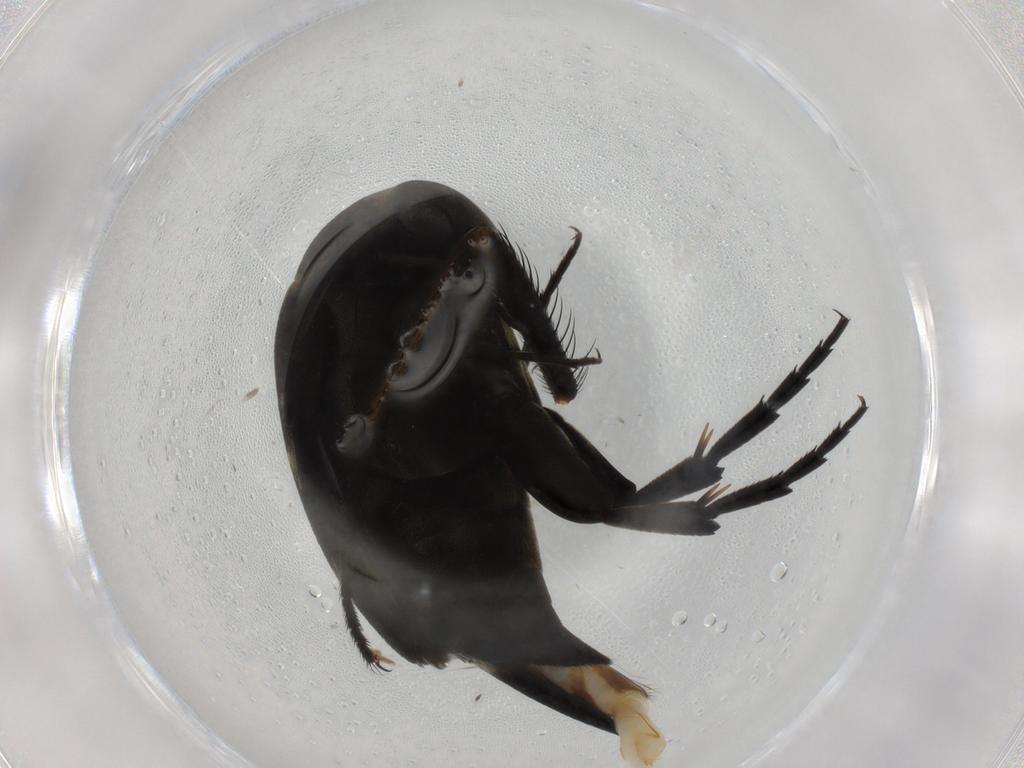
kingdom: Animalia
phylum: Arthropoda
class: Insecta
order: Coleoptera
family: Mordellidae
